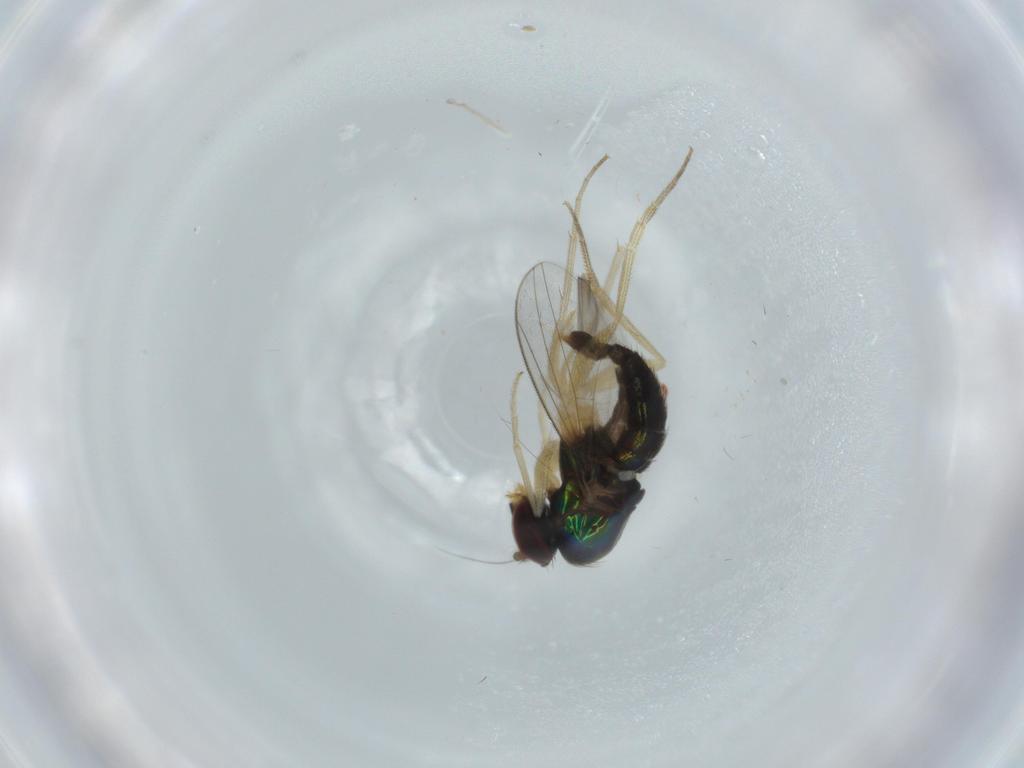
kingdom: Animalia
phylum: Arthropoda
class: Insecta
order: Diptera
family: Dolichopodidae
